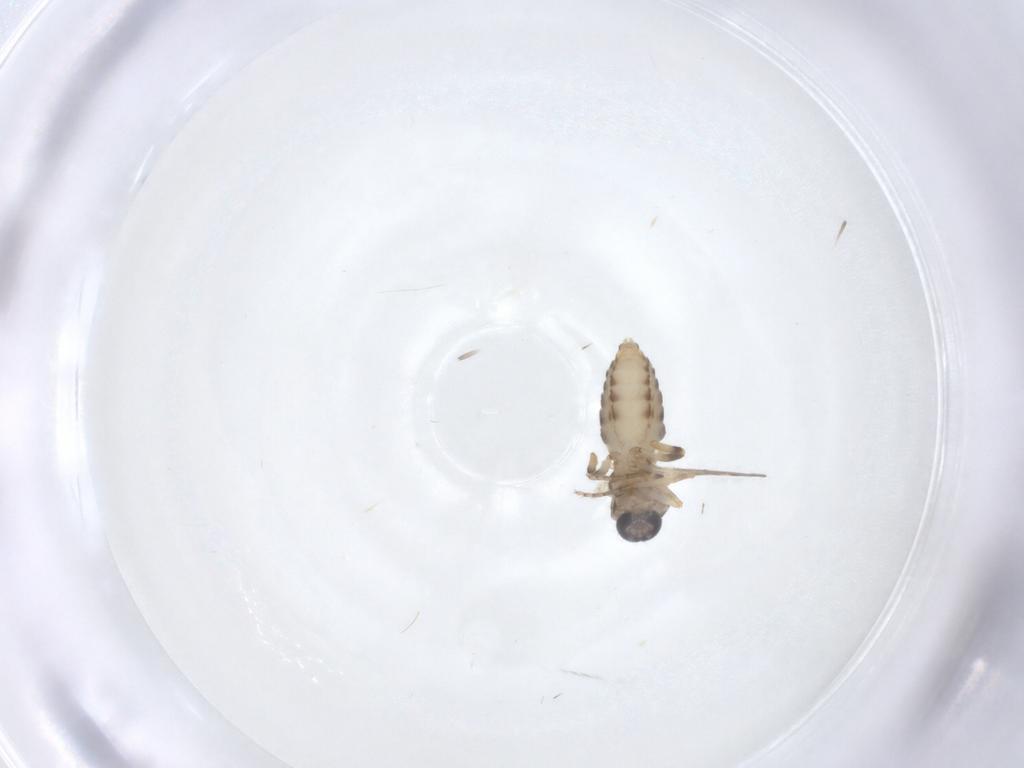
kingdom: Animalia
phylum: Arthropoda
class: Insecta
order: Diptera
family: Ceratopogonidae
